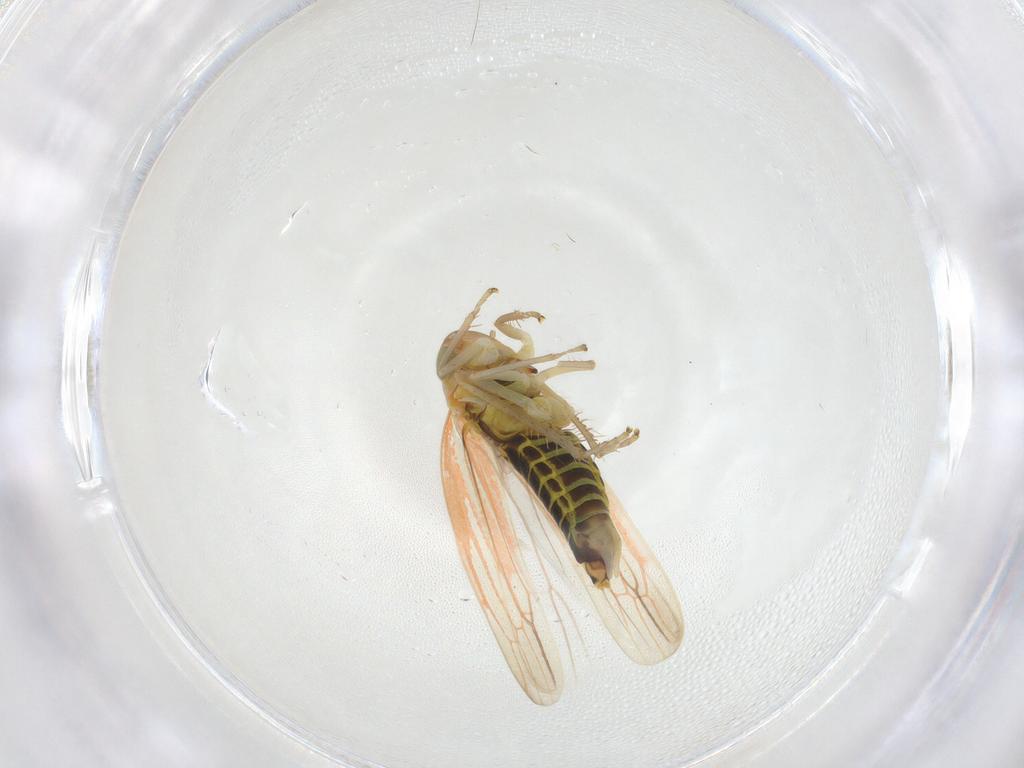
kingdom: Animalia
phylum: Arthropoda
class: Insecta
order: Hemiptera
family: Cicadellidae
